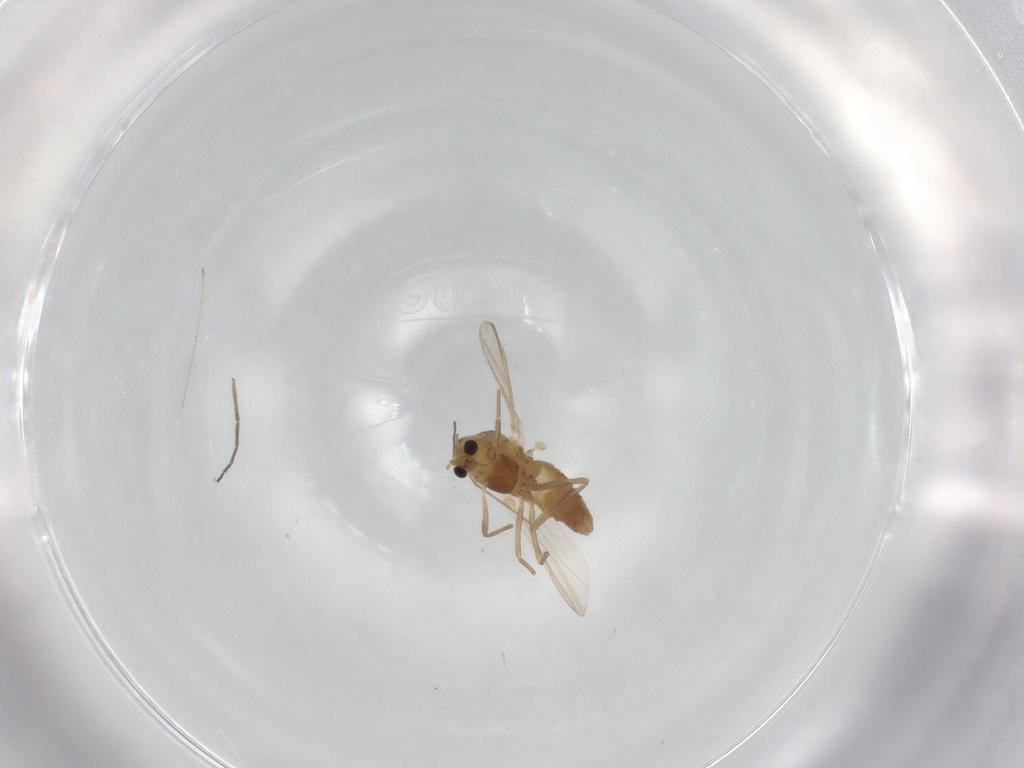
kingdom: Animalia
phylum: Arthropoda
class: Insecta
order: Diptera
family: Chironomidae
